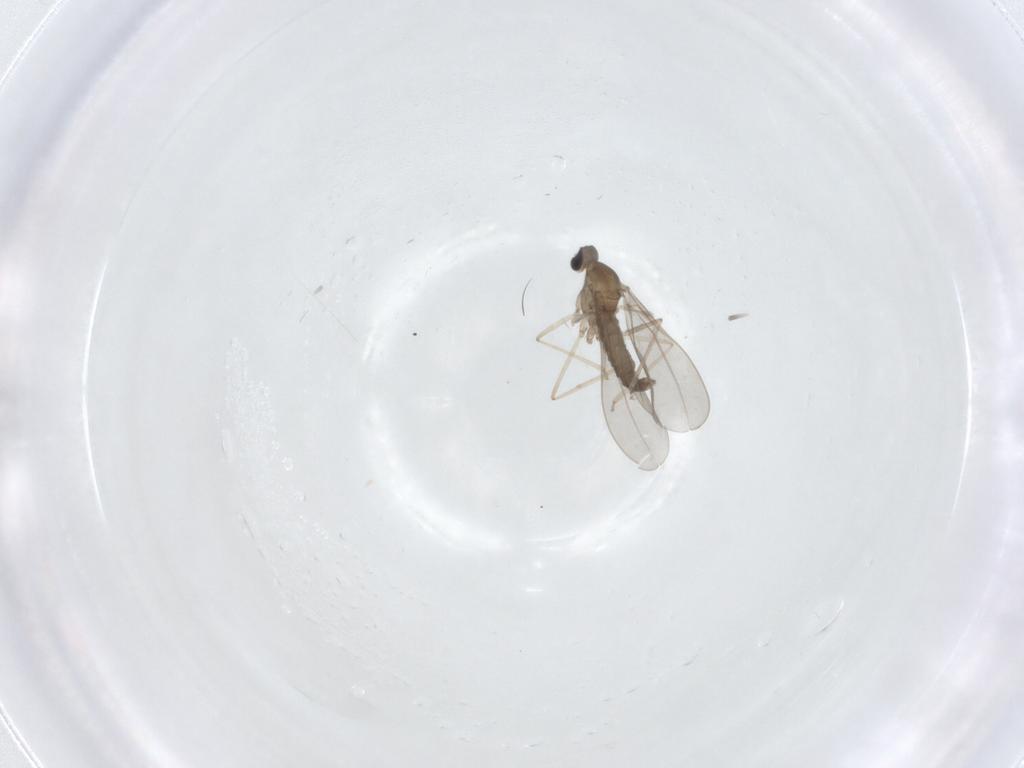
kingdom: Animalia
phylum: Arthropoda
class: Insecta
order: Diptera
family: Cecidomyiidae
